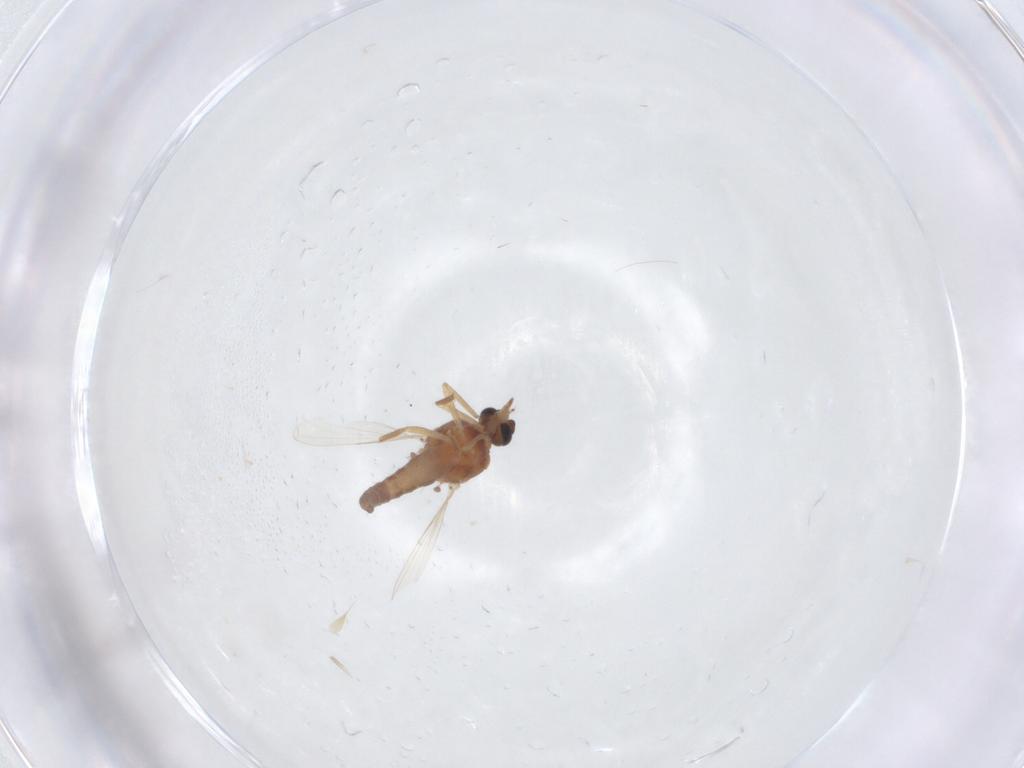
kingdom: Animalia
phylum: Arthropoda
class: Insecta
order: Diptera
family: Ceratopogonidae
